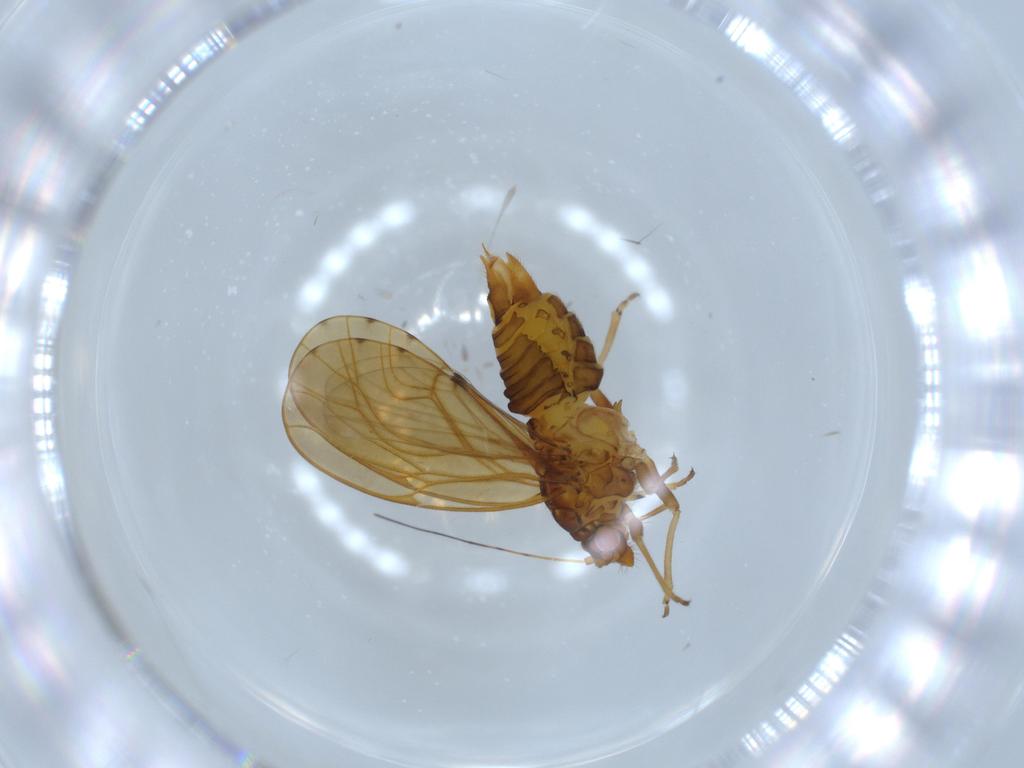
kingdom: Animalia
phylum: Arthropoda
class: Insecta
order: Hemiptera
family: Psylloidea_incertae_sedis
